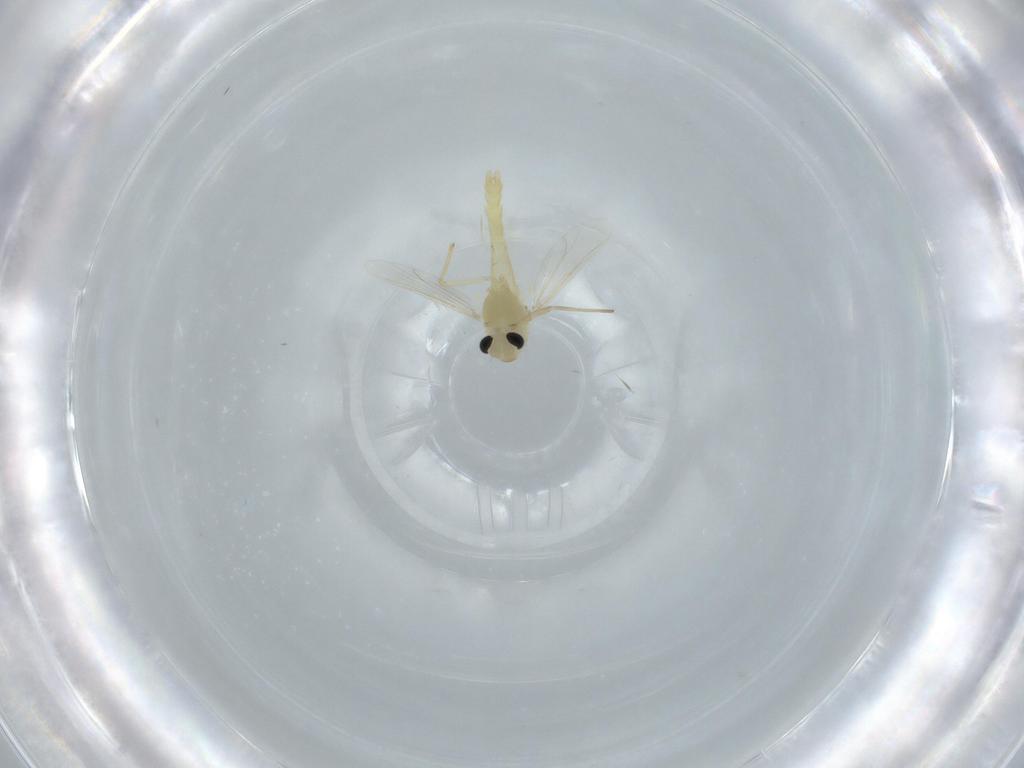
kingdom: Animalia
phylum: Arthropoda
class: Insecta
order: Diptera
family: Chironomidae
